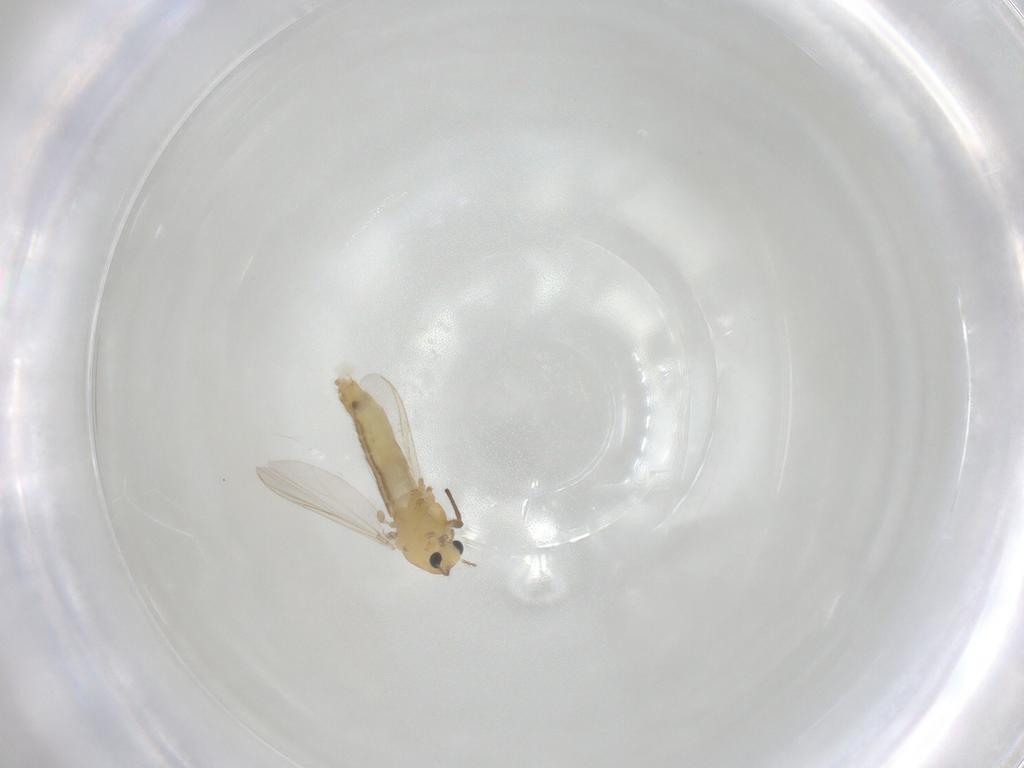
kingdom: Animalia
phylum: Arthropoda
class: Insecta
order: Diptera
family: Chironomidae
